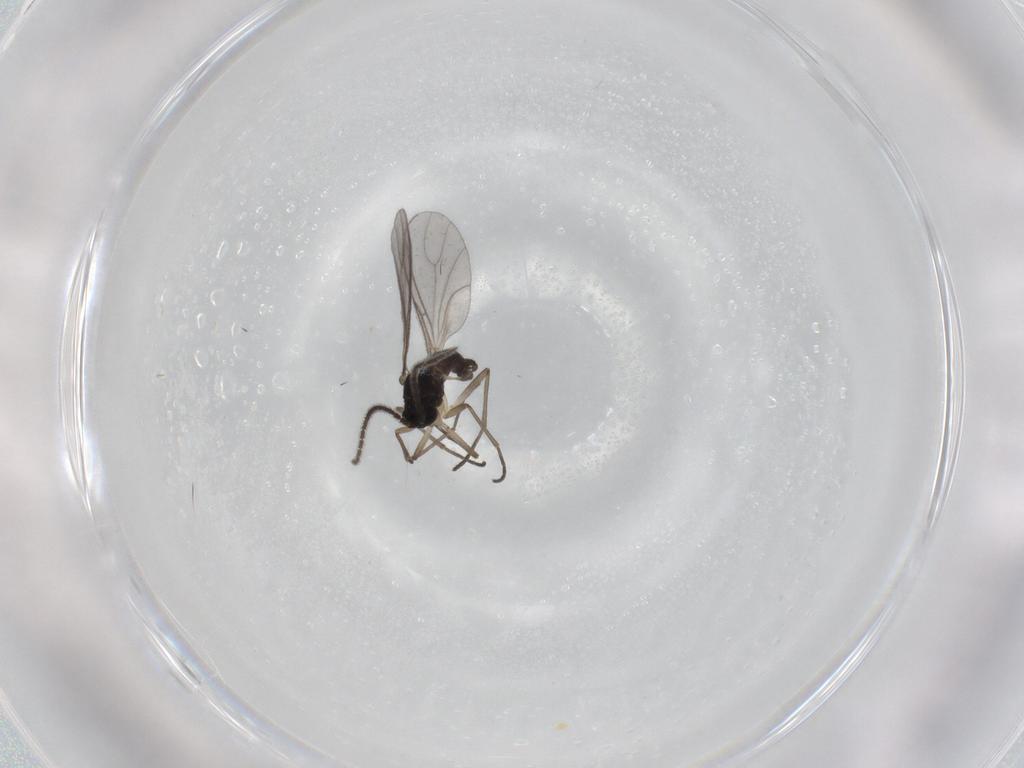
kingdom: Animalia
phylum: Arthropoda
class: Insecta
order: Diptera
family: Sciaridae
